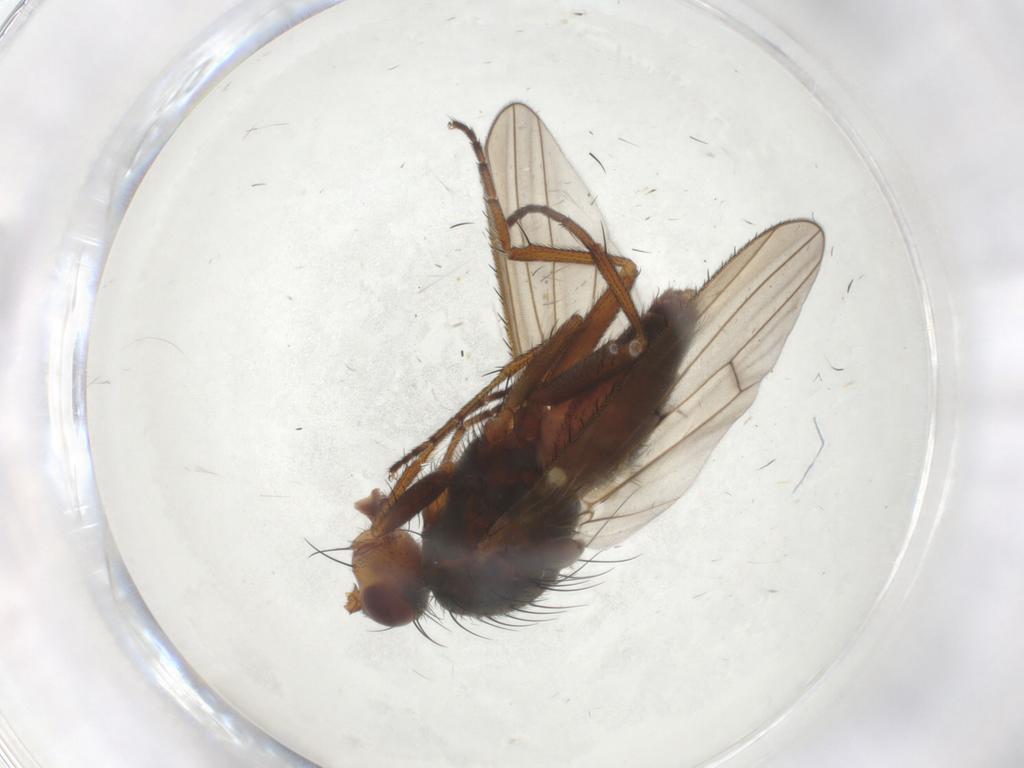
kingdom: Animalia
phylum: Arthropoda
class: Insecta
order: Diptera
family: Heleomyzidae
